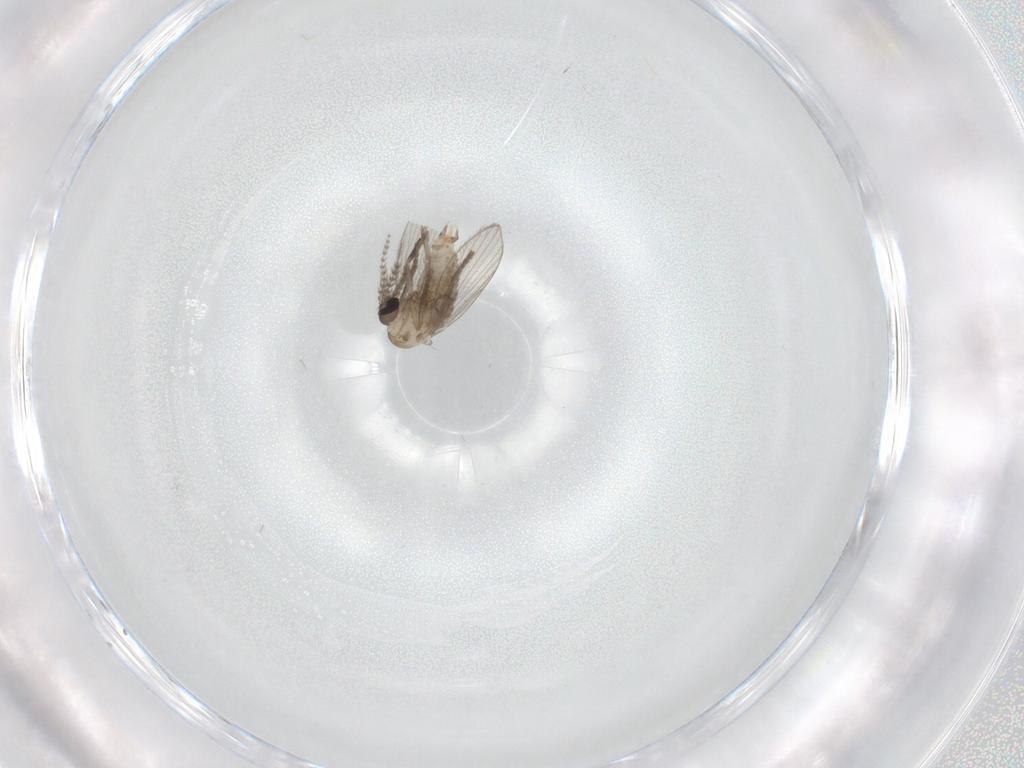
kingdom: Animalia
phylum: Arthropoda
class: Insecta
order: Diptera
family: Psychodidae
